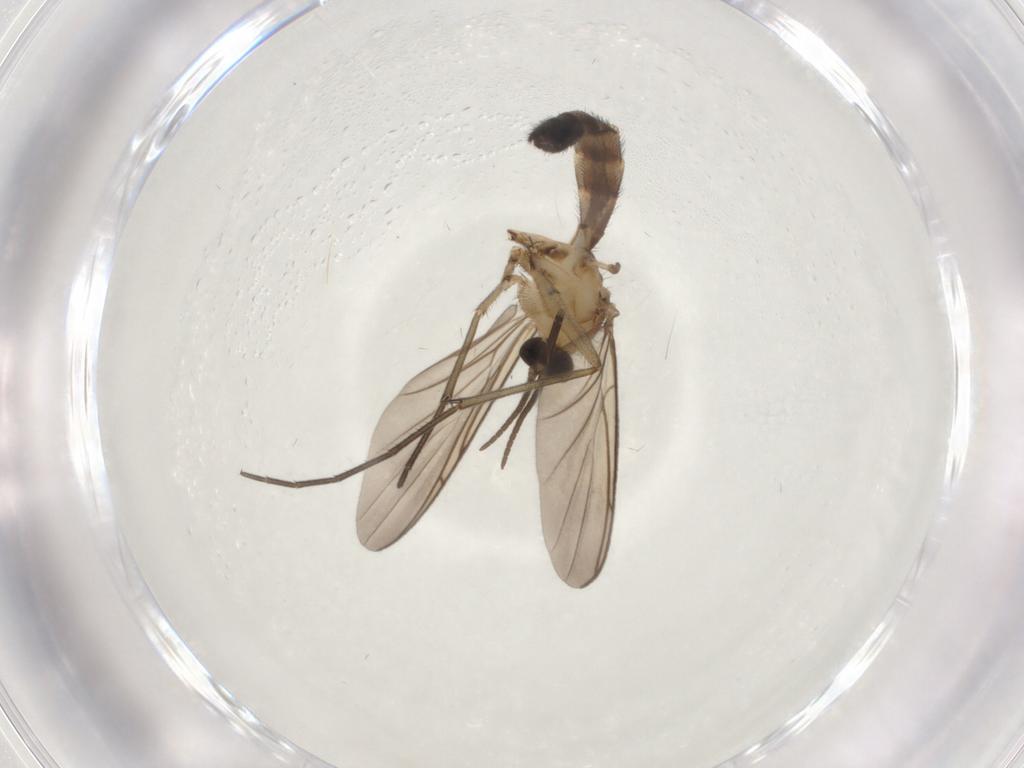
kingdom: Animalia
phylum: Arthropoda
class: Insecta
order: Diptera
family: Keroplatidae
